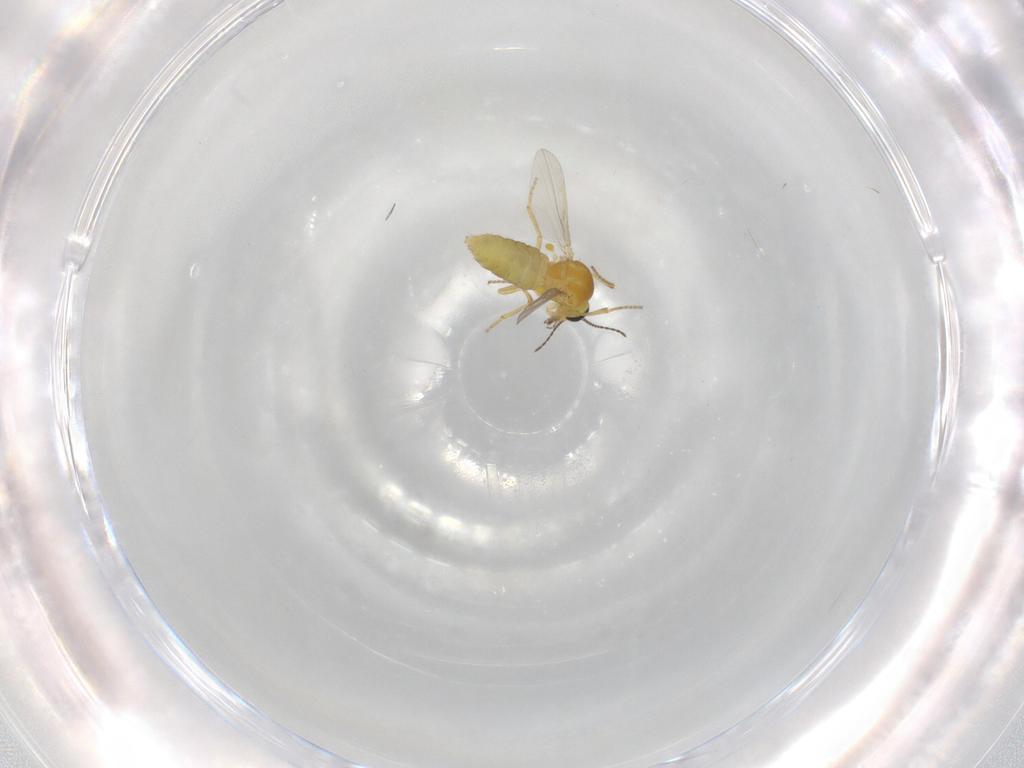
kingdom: Animalia
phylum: Arthropoda
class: Insecta
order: Diptera
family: Ceratopogonidae
